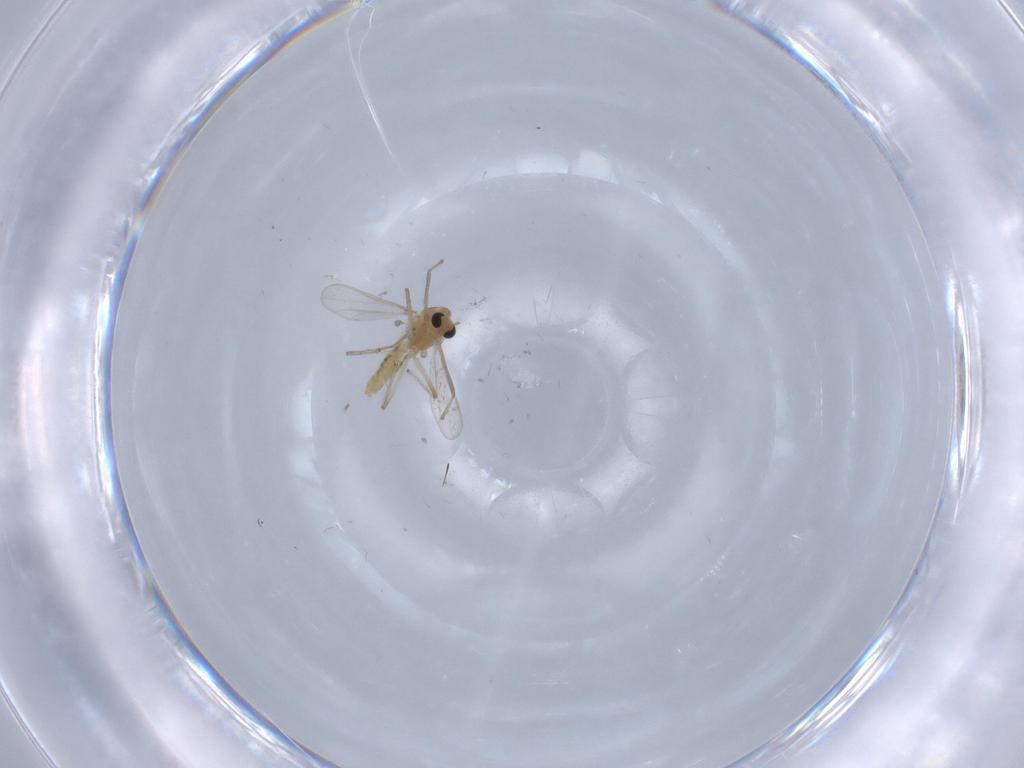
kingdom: Animalia
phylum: Arthropoda
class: Insecta
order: Diptera
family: Chironomidae
